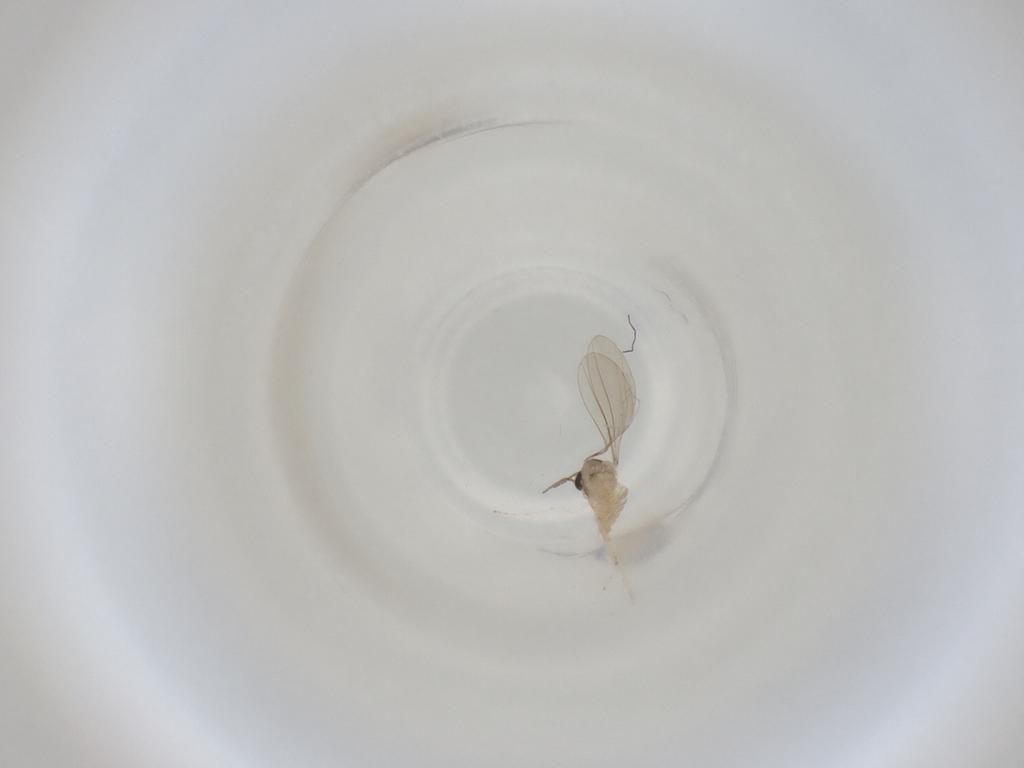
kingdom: Animalia
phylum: Arthropoda
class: Insecta
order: Diptera
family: Cecidomyiidae
